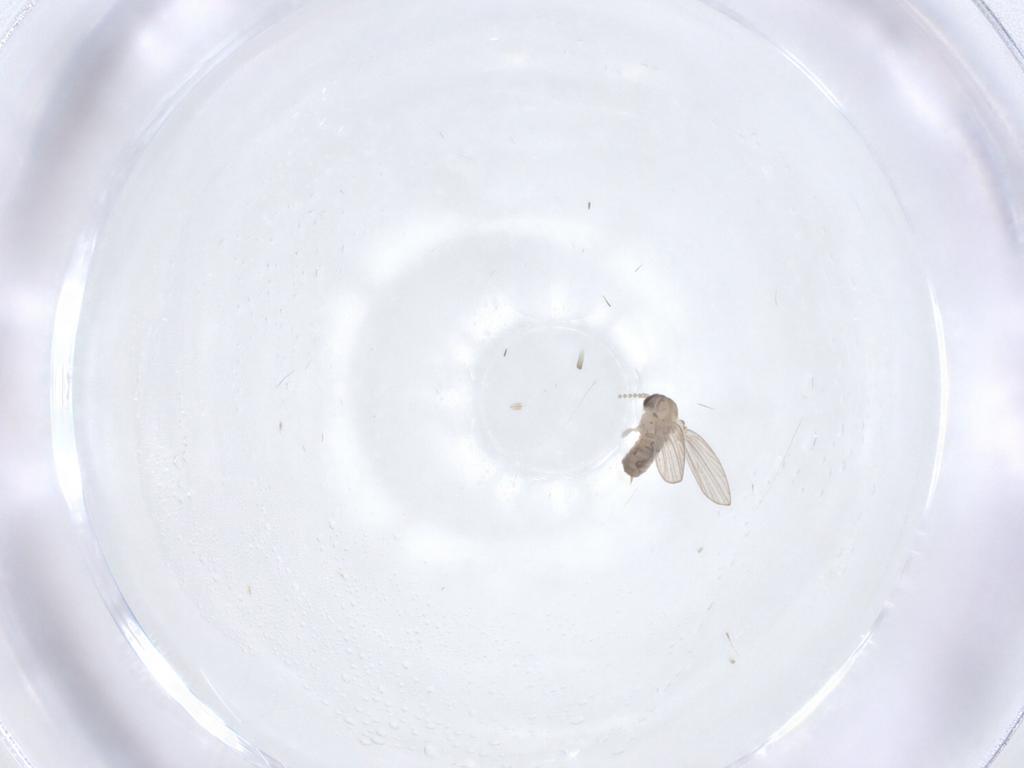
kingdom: Animalia
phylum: Arthropoda
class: Insecta
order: Diptera
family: Psychodidae
